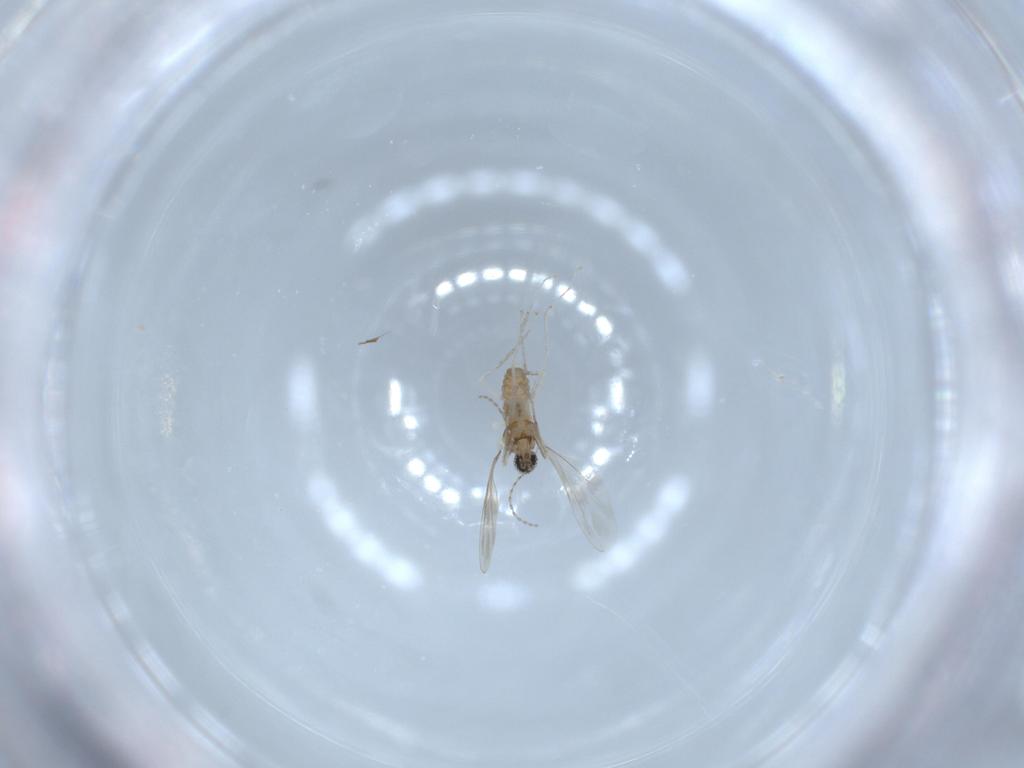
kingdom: Animalia
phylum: Arthropoda
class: Insecta
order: Diptera
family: Cecidomyiidae
